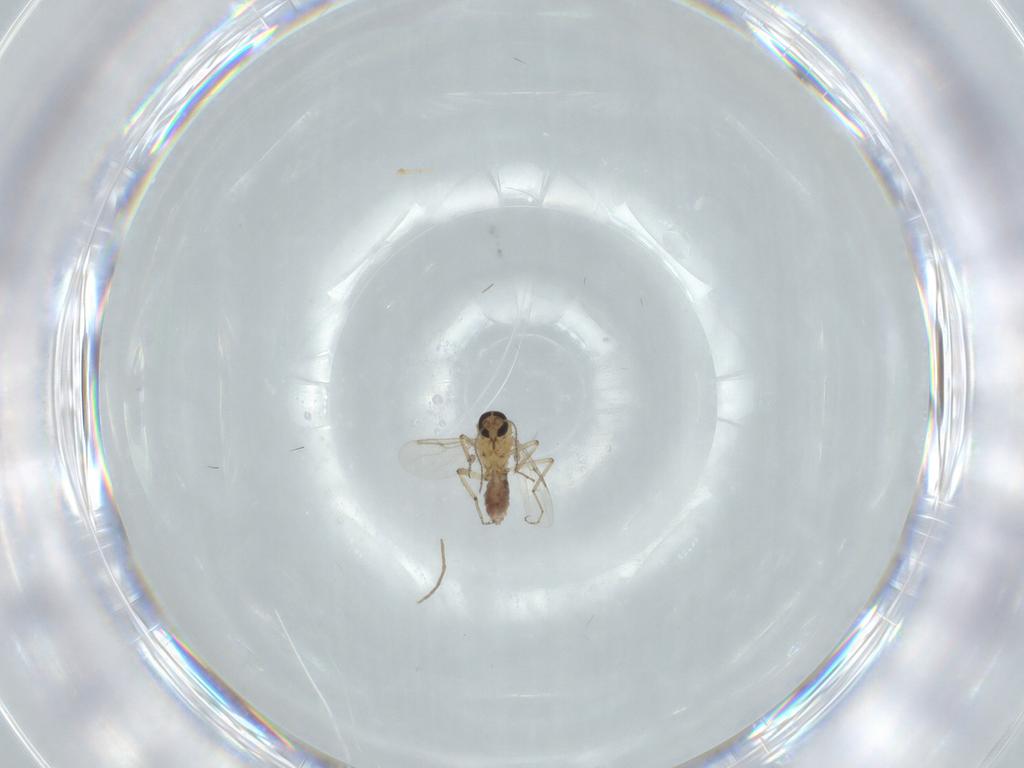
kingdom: Animalia
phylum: Arthropoda
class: Insecta
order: Diptera
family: Ceratopogonidae
